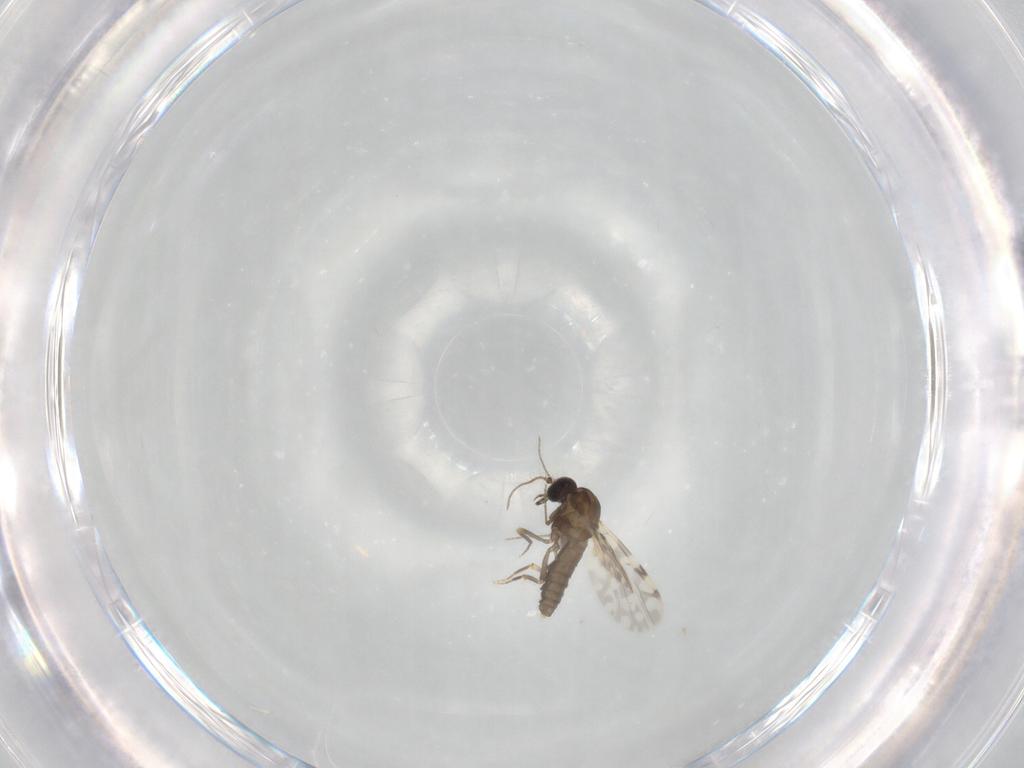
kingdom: Animalia
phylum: Arthropoda
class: Insecta
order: Diptera
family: Ceratopogonidae
